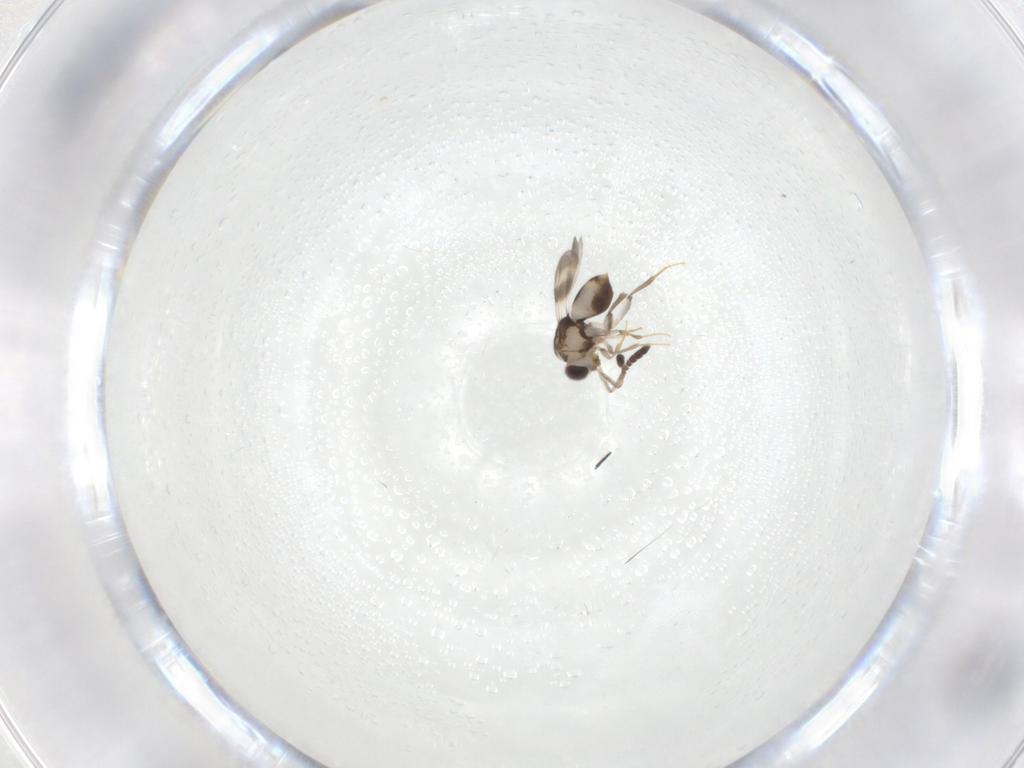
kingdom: Animalia
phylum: Arthropoda
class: Insecta
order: Hymenoptera
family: Figitidae
